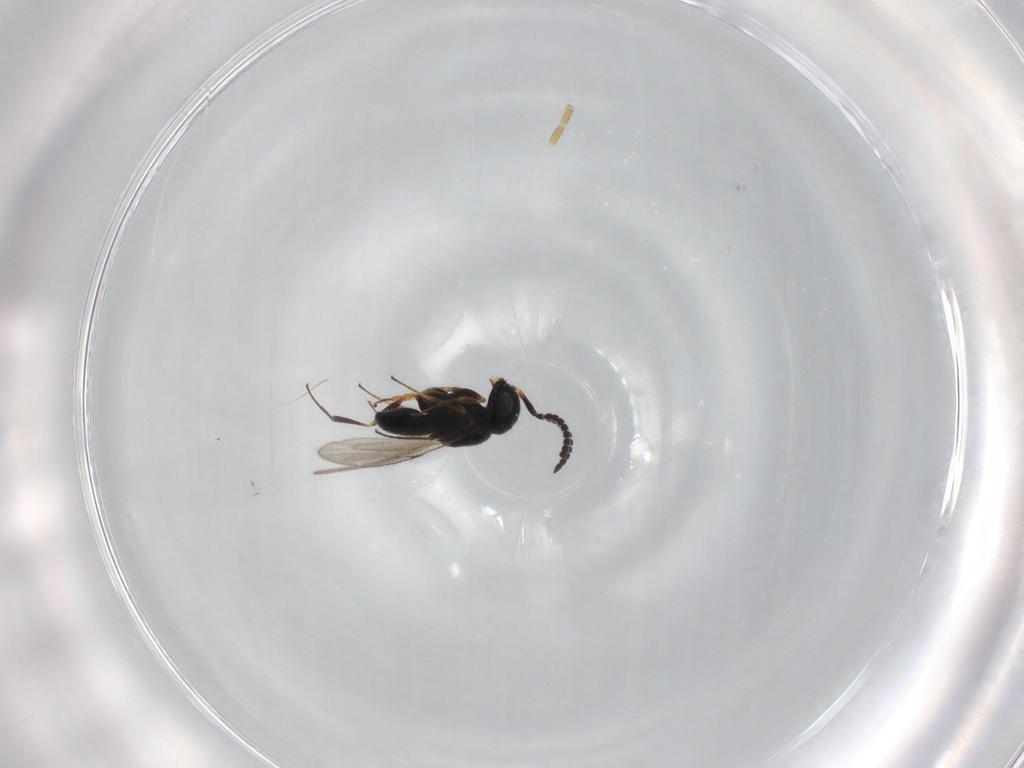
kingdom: Animalia
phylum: Arthropoda
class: Insecta
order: Hymenoptera
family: Scelionidae
